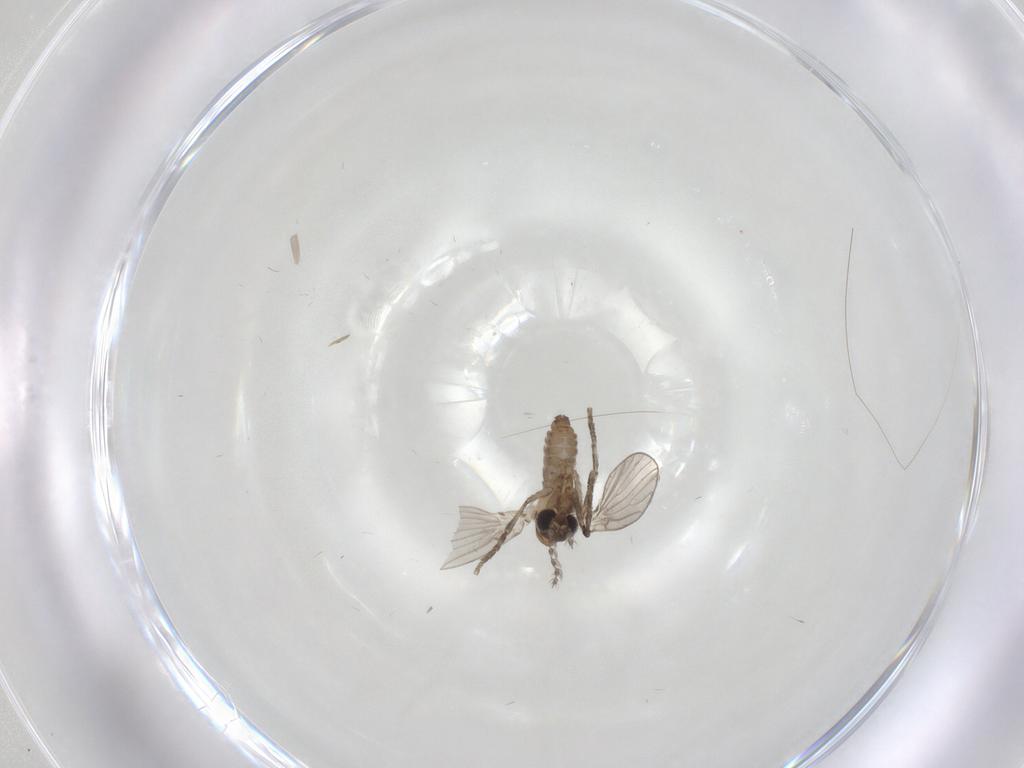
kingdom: Animalia
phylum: Arthropoda
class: Insecta
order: Diptera
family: Psychodidae
